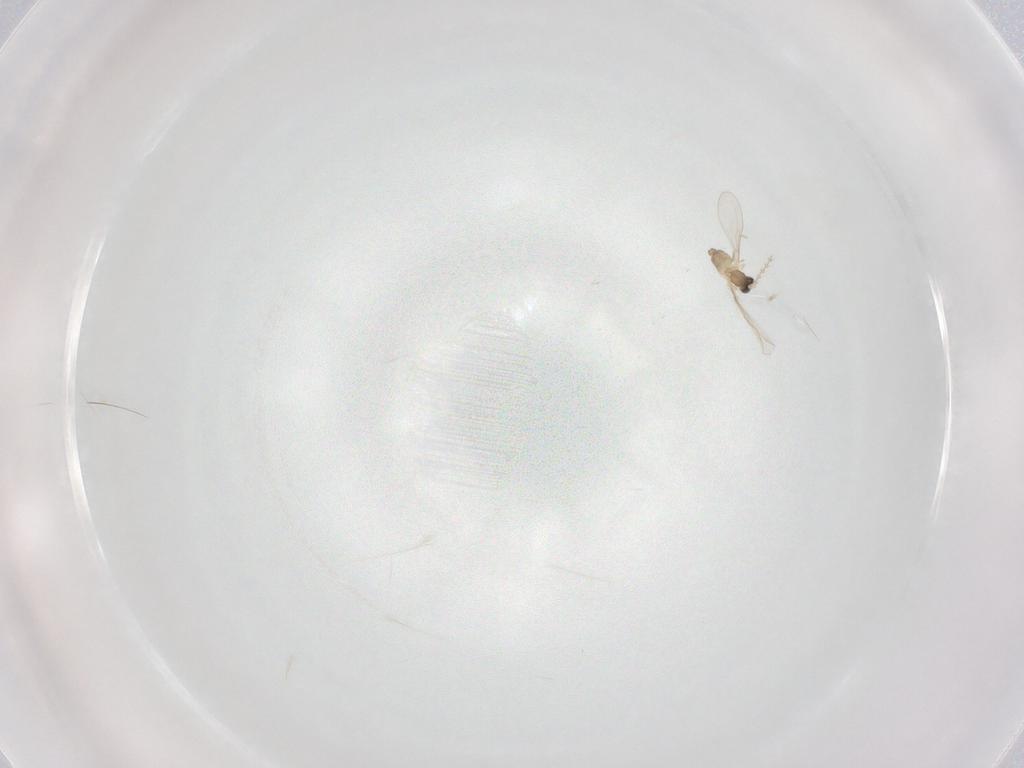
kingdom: Animalia
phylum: Arthropoda
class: Insecta
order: Diptera
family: Cecidomyiidae
